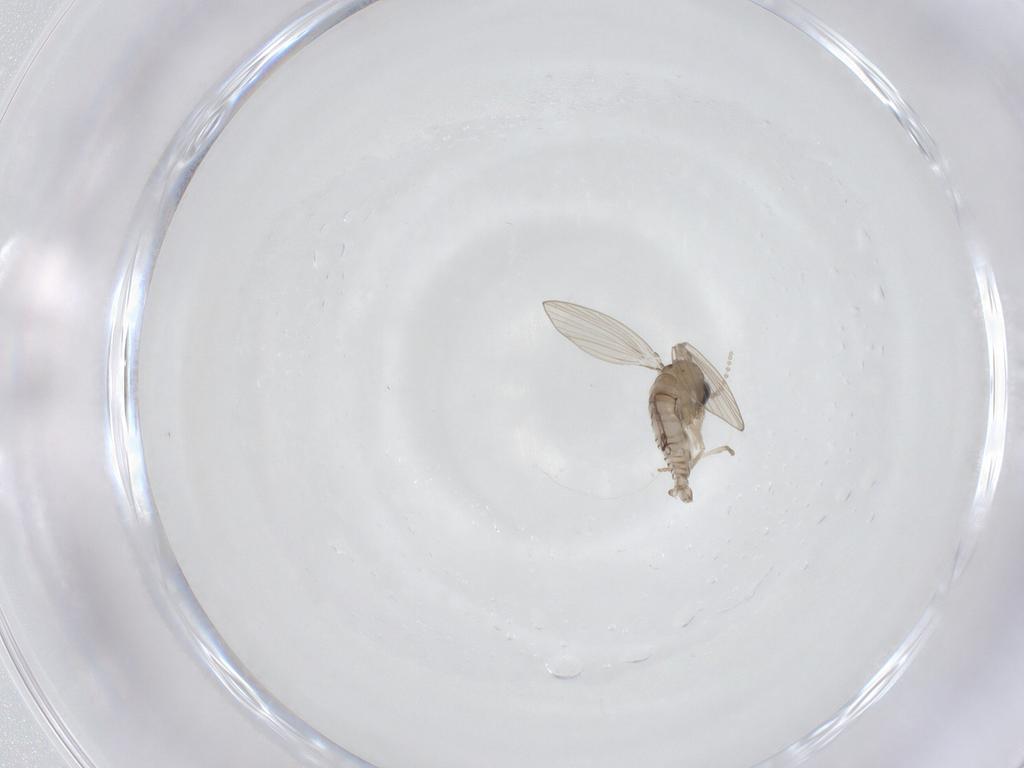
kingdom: Animalia
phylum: Arthropoda
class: Insecta
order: Diptera
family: Psychodidae
